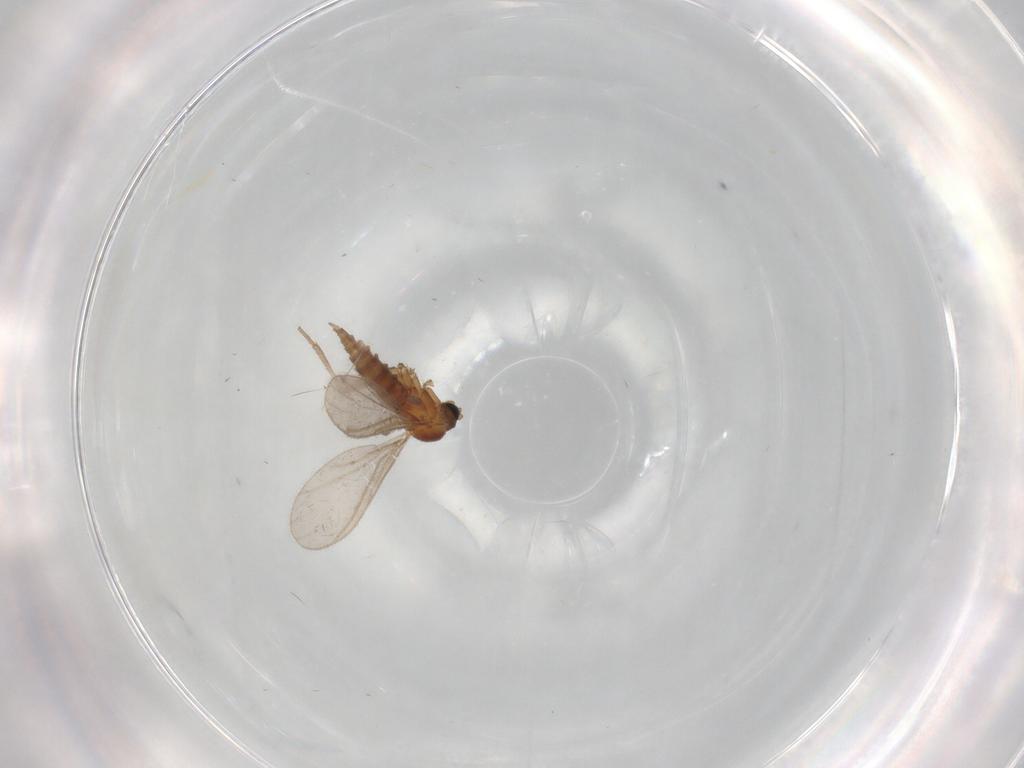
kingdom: Animalia
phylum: Arthropoda
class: Insecta
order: Diptera
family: Sciaridae
